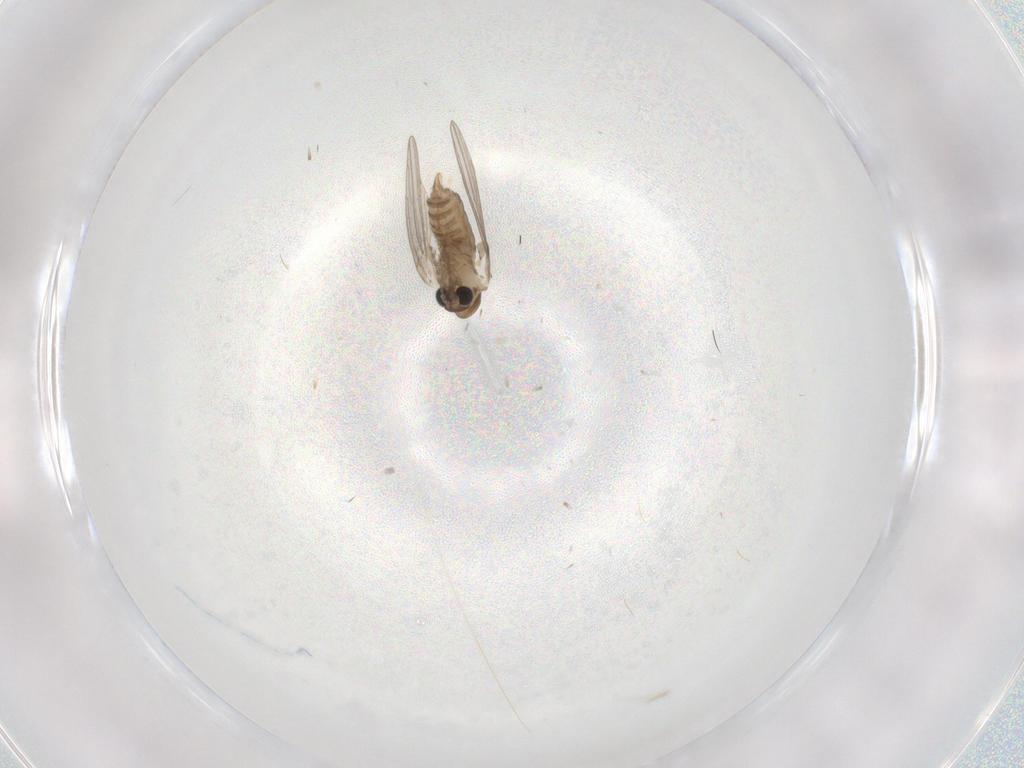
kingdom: Animalia
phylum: Arthropoda
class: Insecta
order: Diptera
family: Psychodidae
